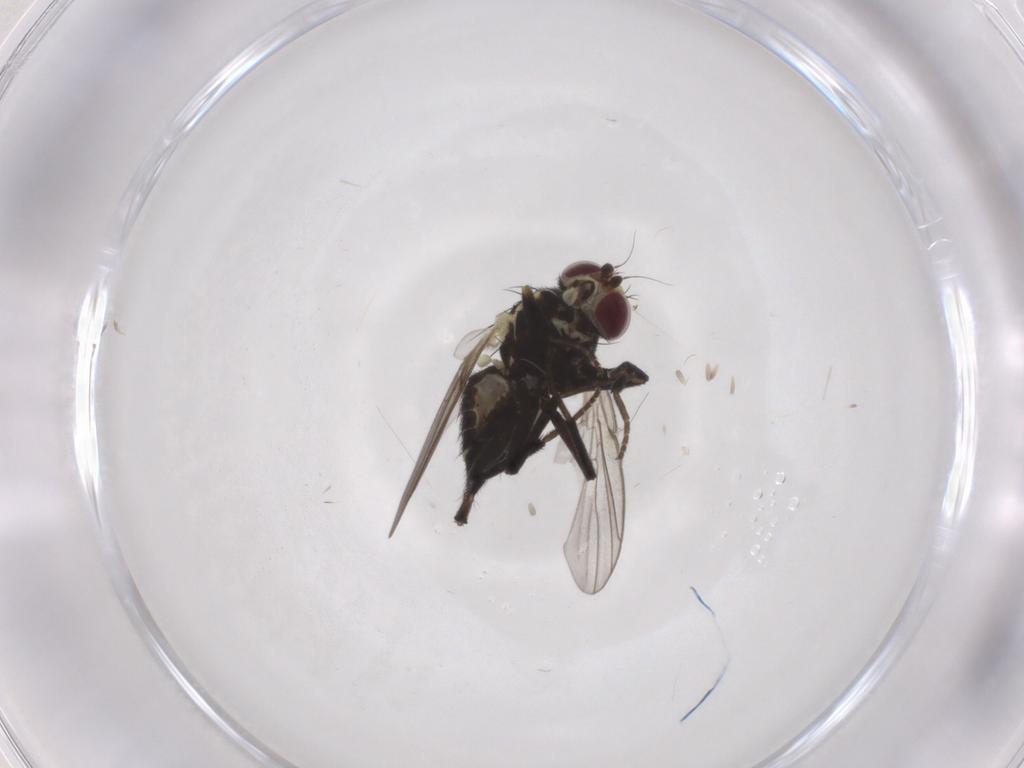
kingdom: Animalia
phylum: Arthropoda
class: Insecta
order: Diptera
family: Agromyzidae
